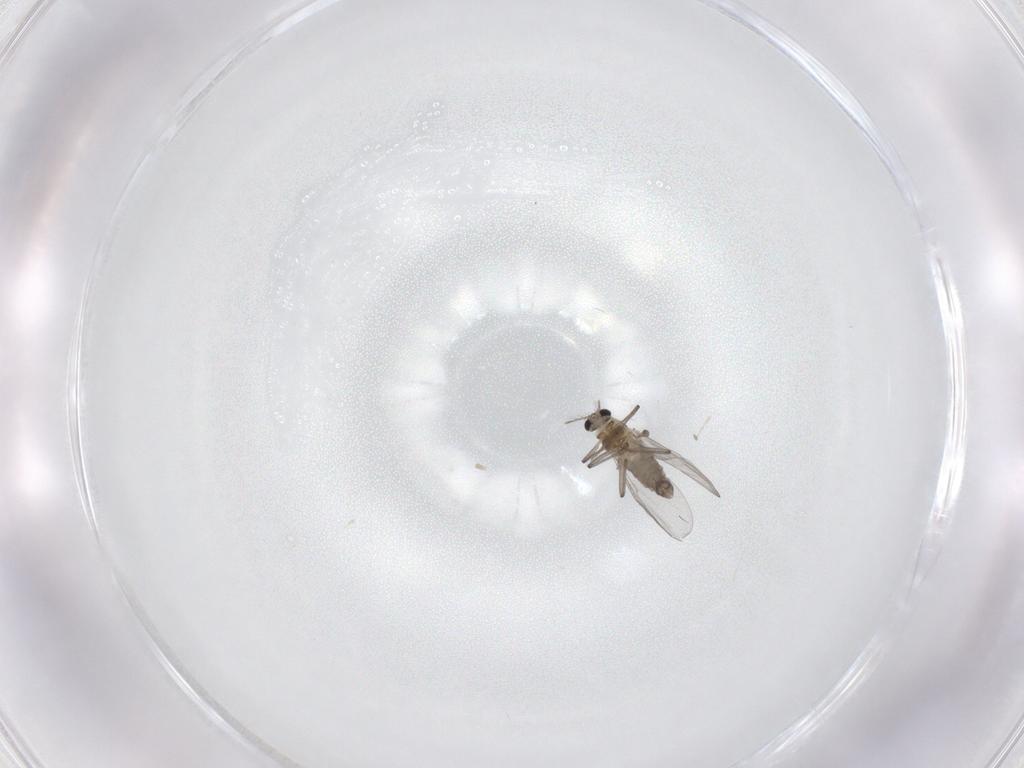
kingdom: Animalia
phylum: Arthropoda
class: Insecta
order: Diptera
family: Chironomidae
